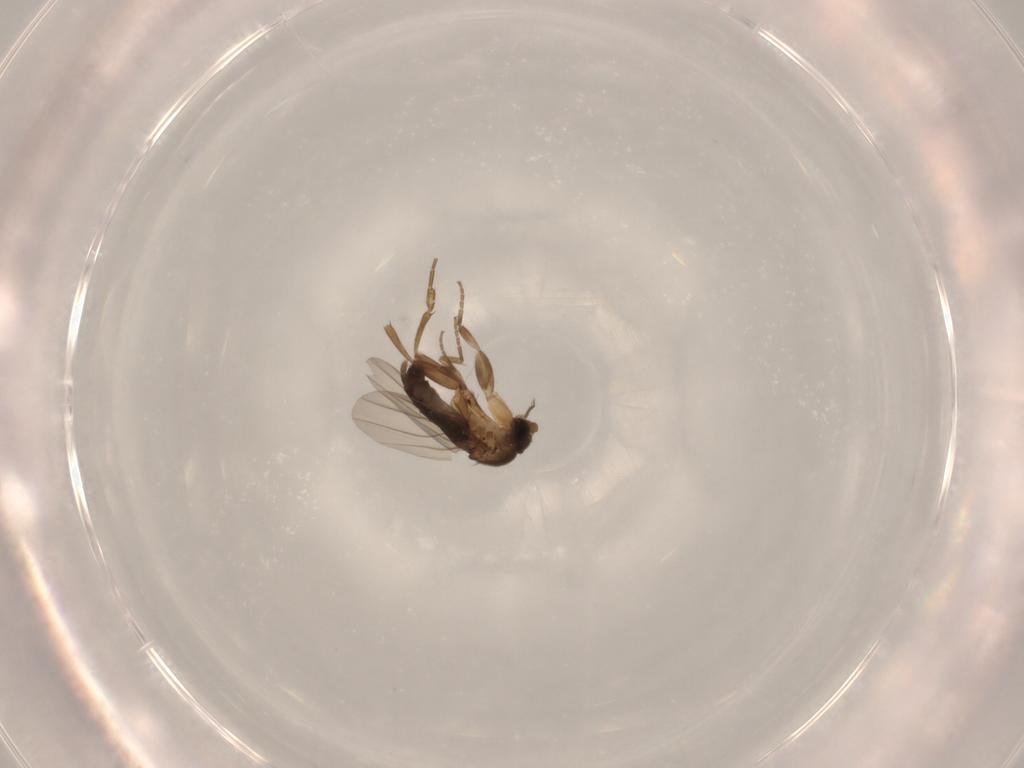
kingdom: Animalia
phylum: Arthropoda
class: Insecta
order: Diptera
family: Phoridae
